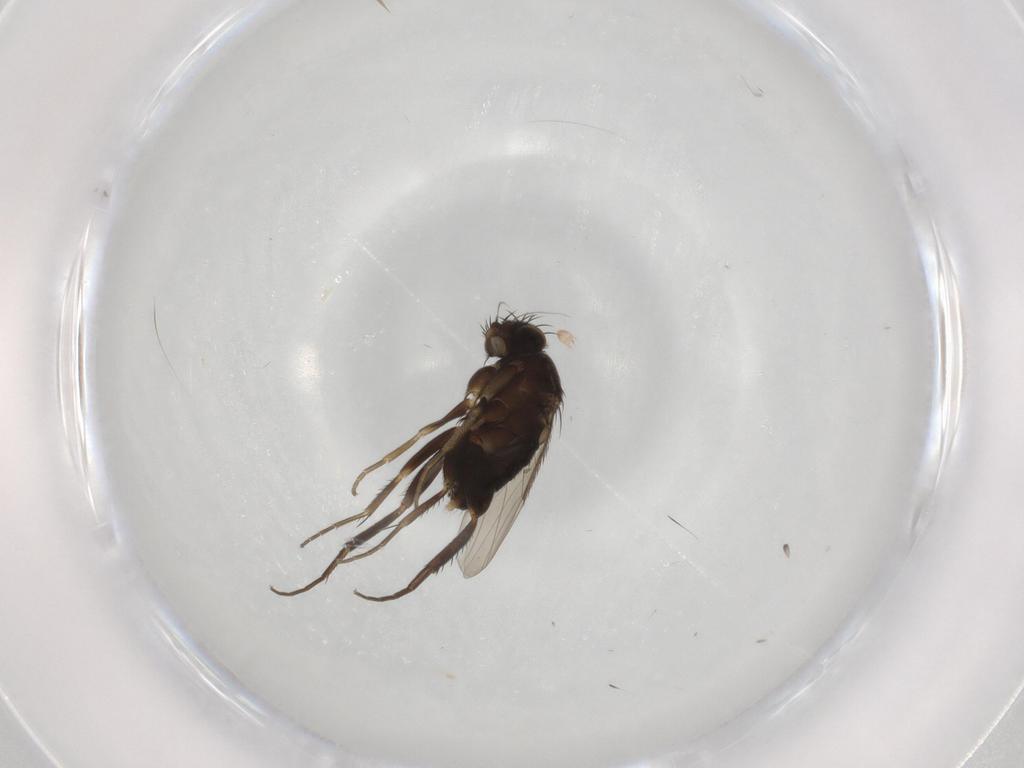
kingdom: Animalia
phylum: Arthropoda
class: Insecta
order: Diptera
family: Phoridae
